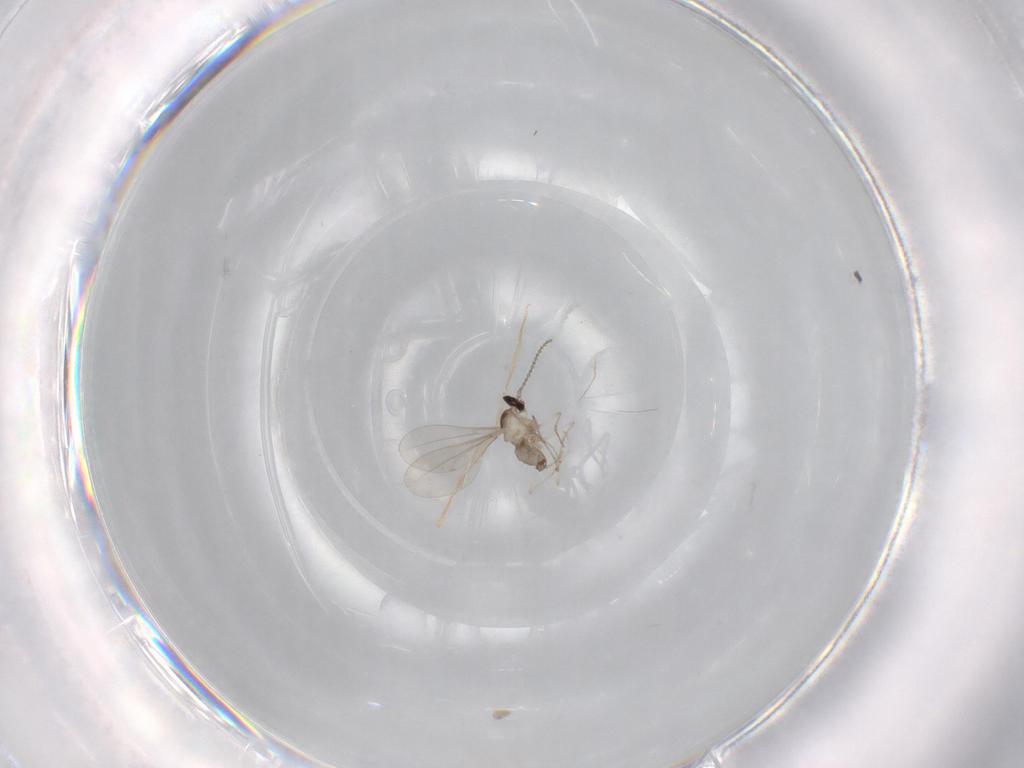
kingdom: Animalia
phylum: Arthropoda
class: Insecta
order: Diptera
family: Cecidomyiidae
